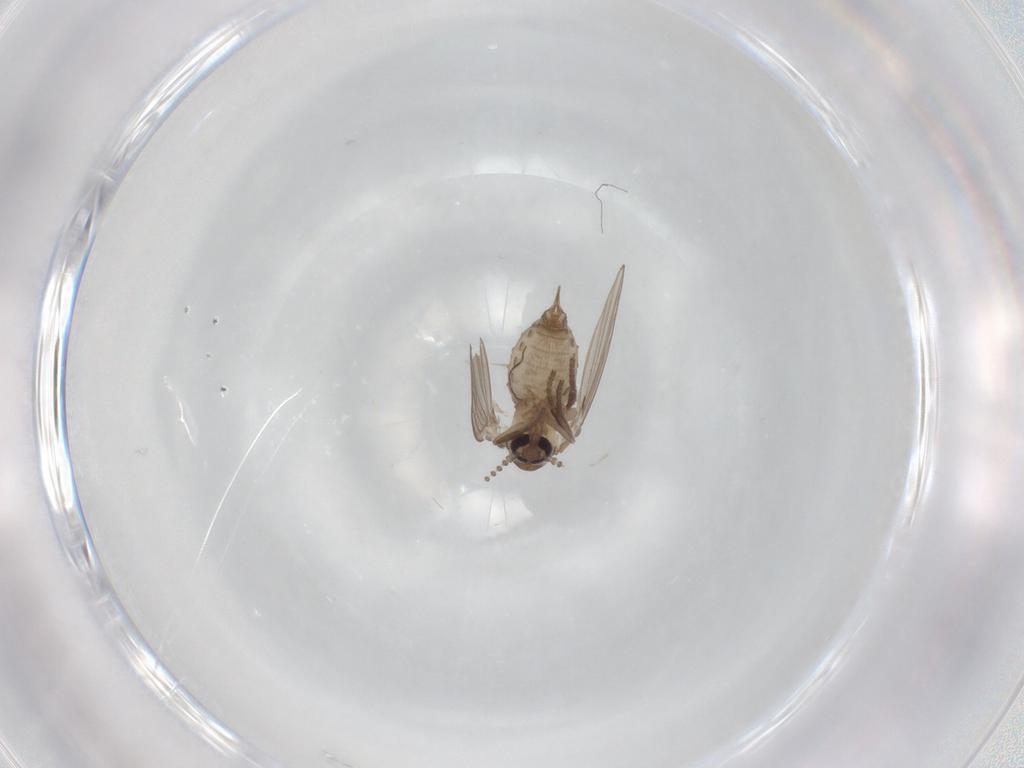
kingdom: Animalia
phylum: Arthropoda
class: Insecta
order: Diptera
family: Psychodidae
